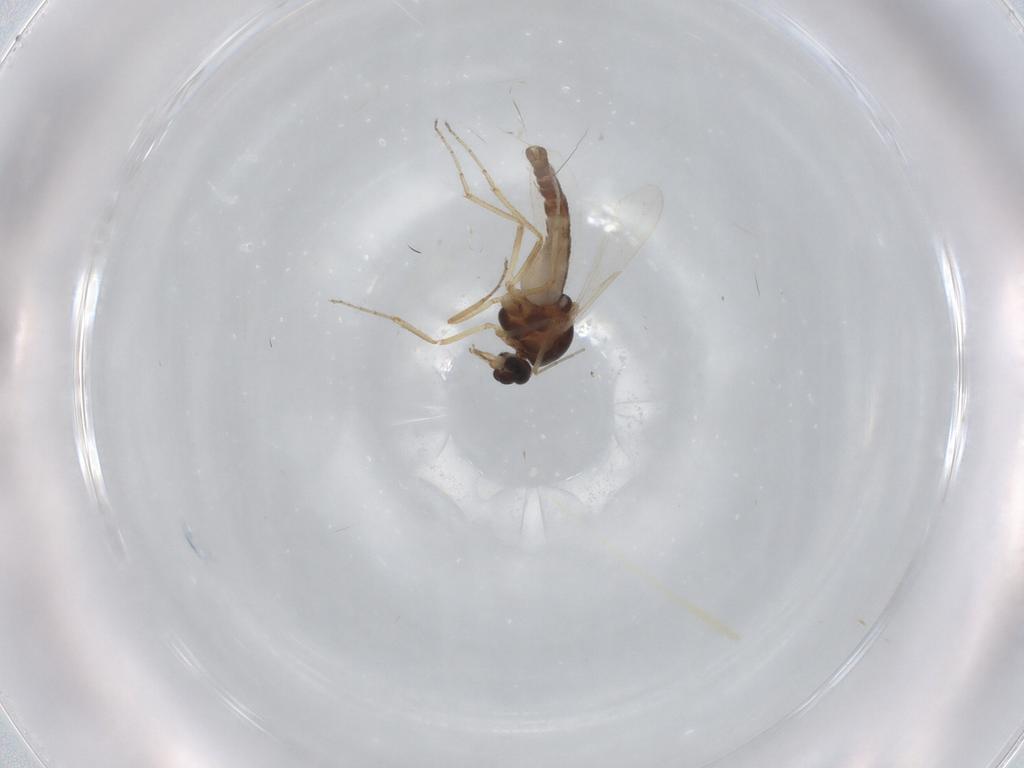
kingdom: Animalia
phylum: Arthropoda
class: Insecta
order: Diptera
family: Ceratopogonidae
